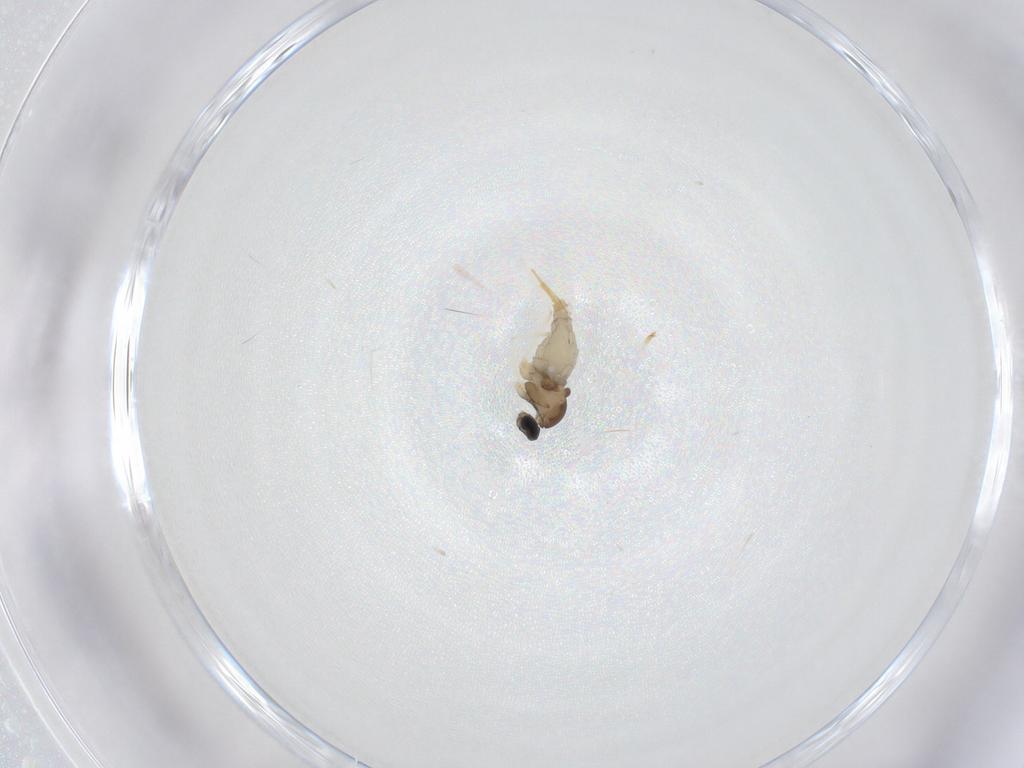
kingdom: Animalia
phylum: Arthropoda
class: Insecta
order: Diptera
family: Cecidomyiidae
